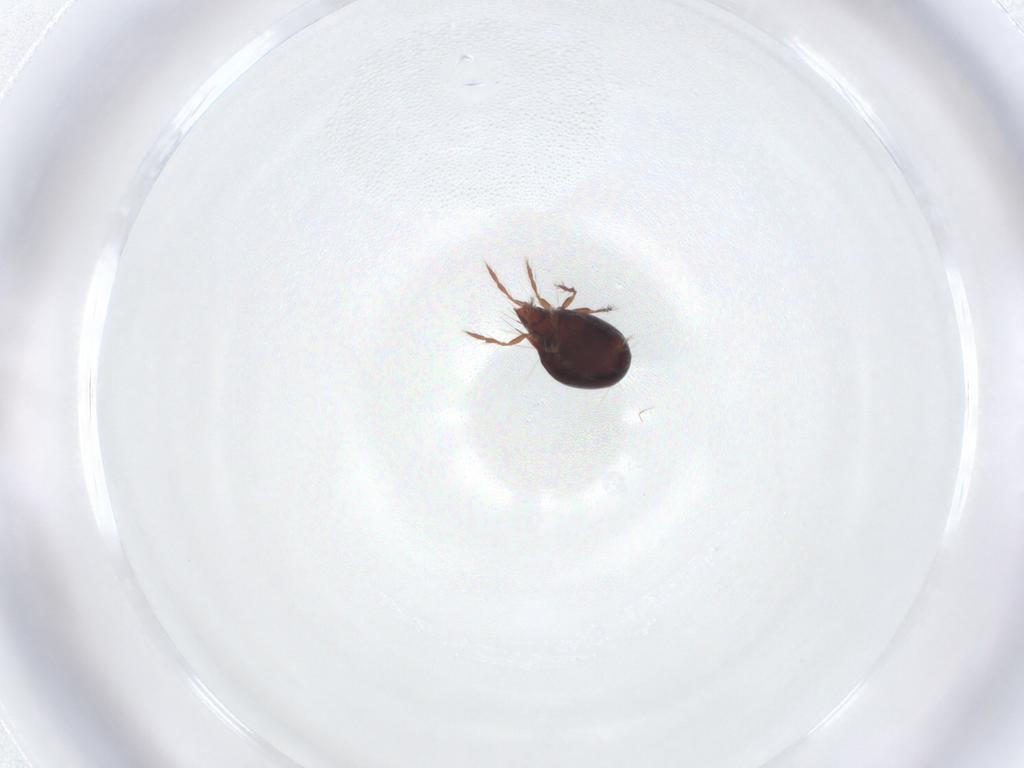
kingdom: Animalia
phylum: Arthropoda
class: Arachnida
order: Sarcoptiformes
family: Ceratoppiidae
